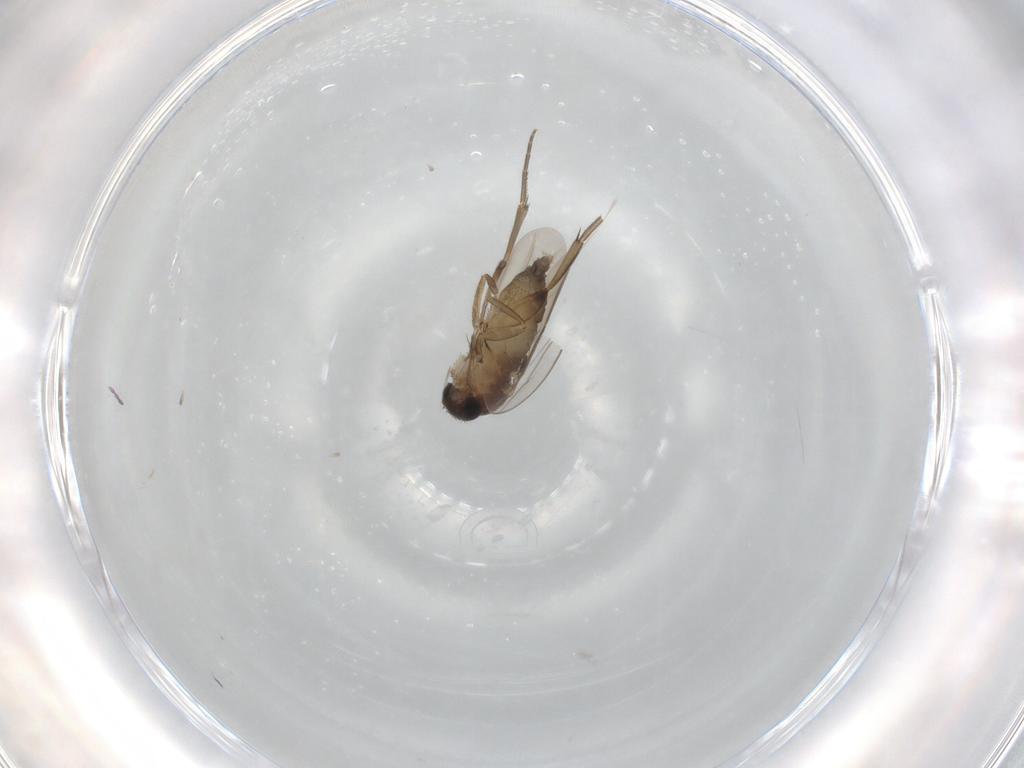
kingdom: Animalia
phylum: Arthropoda
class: Insecta
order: Diptera
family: Phoridae
